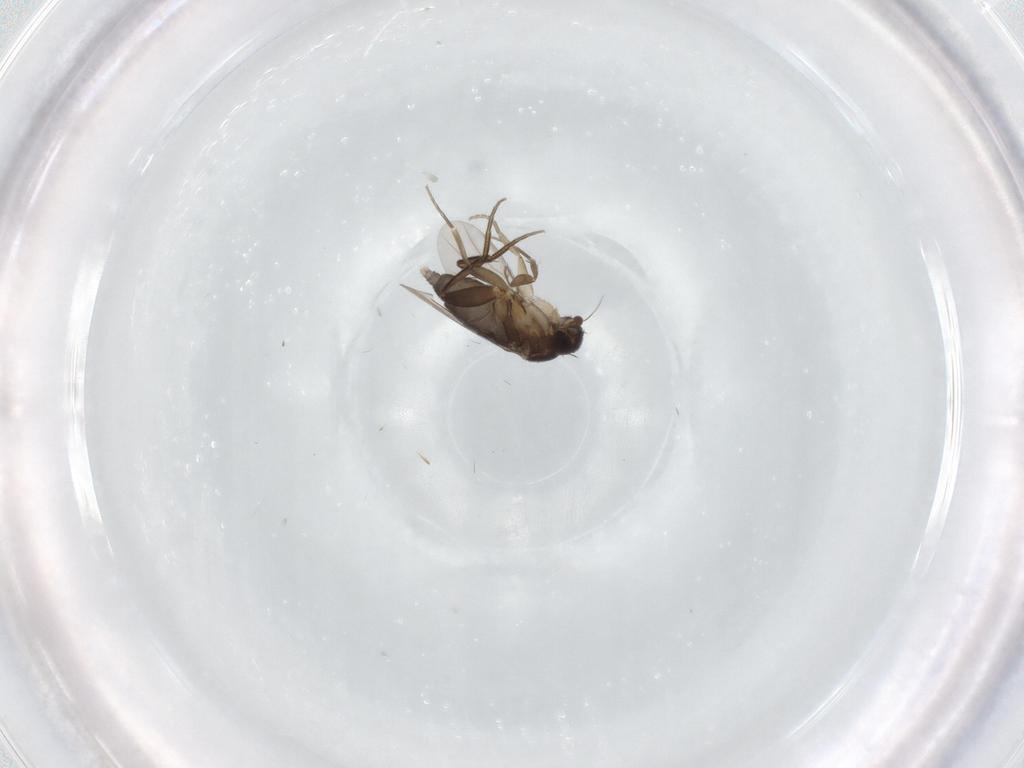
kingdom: Animalia
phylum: Arthropoda
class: Insecta
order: Diptera
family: Phoridae
